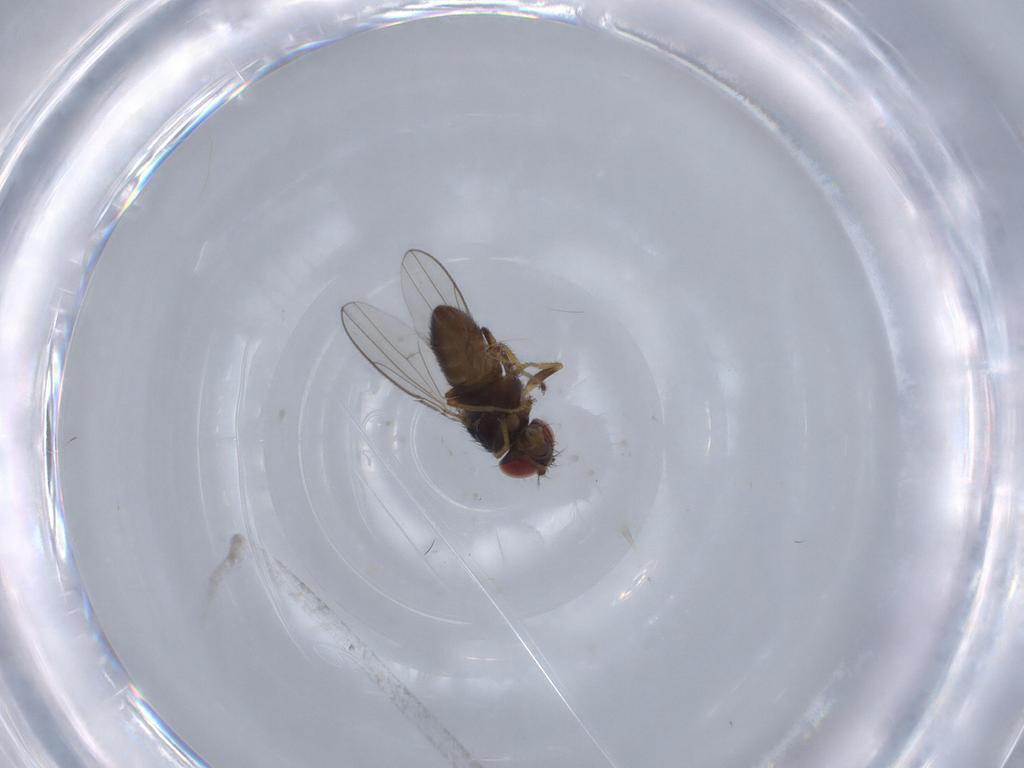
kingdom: Animalia
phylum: Arthropoda
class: Insecta
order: Diptera
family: Ephydridae
